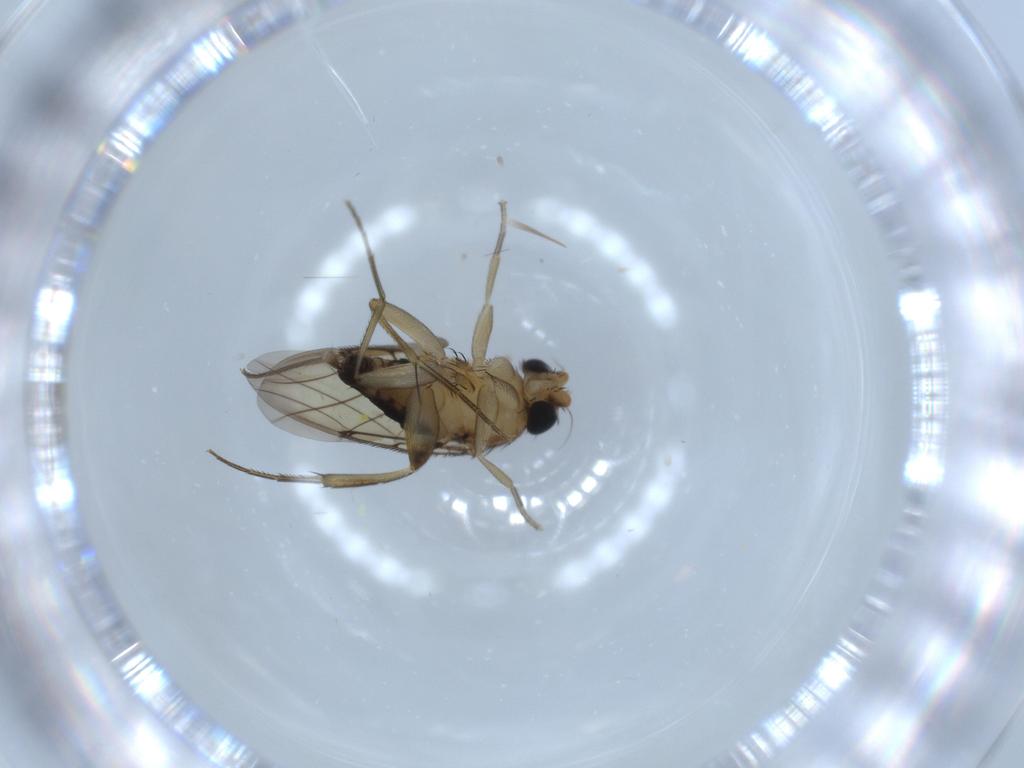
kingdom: Animalia
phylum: Arthropoda
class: Insecta
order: Diptera
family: Phoridae
